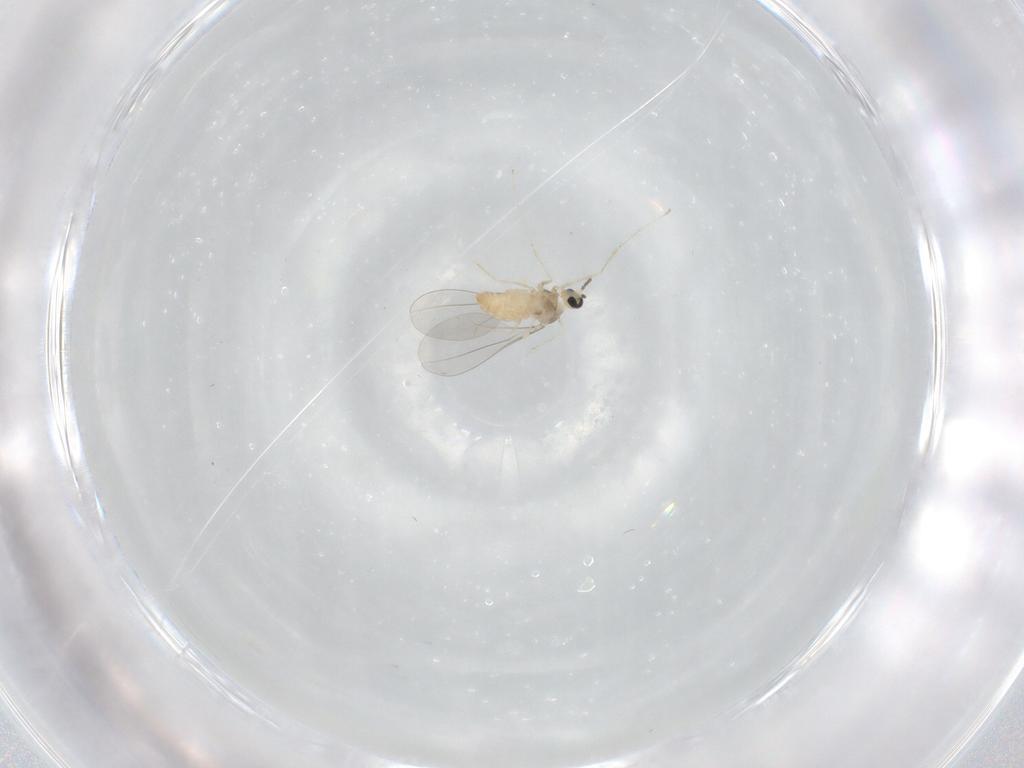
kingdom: Animalia
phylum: Arthropoda
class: Insecta
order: Diptera
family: Cecidomyiidae
